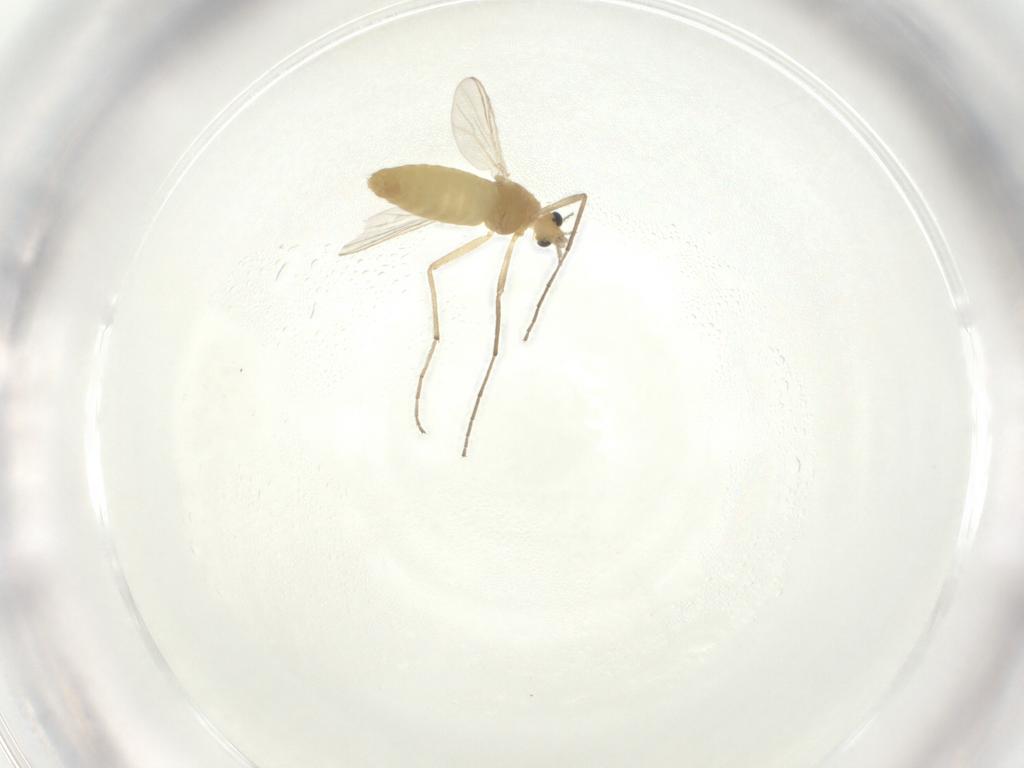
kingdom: Animalia
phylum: Arthropoda
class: Insecta
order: Diptera
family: Chironomidae
